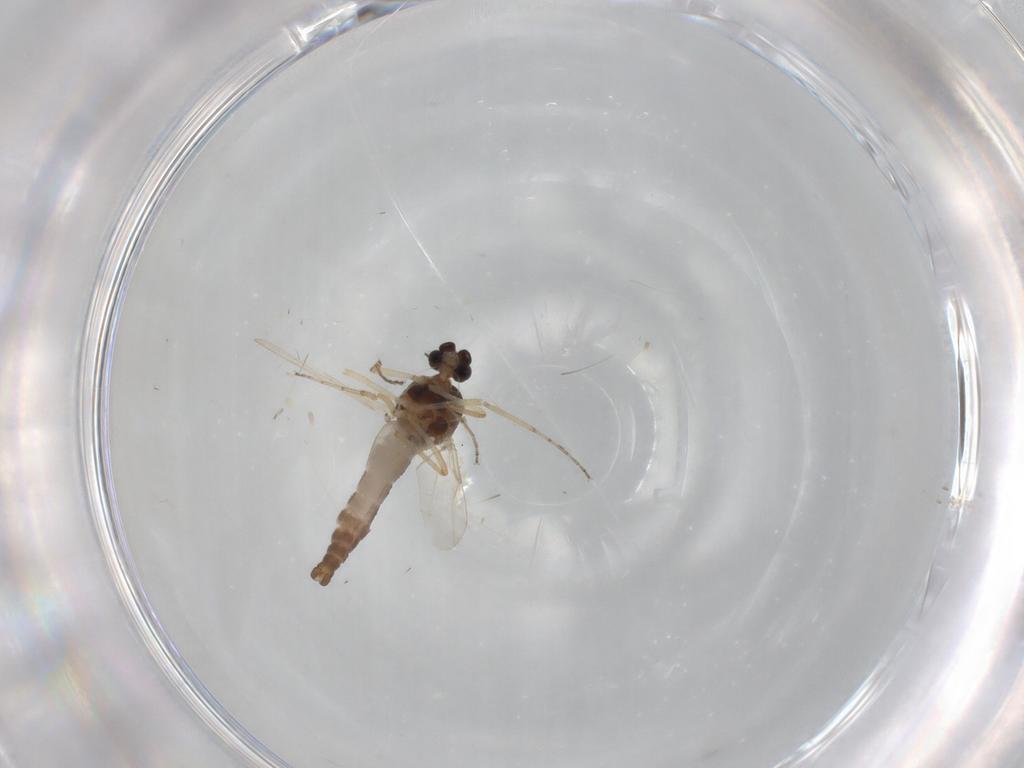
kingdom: Animalia
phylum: Arthropoda
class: Insecta
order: Diptera
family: Ceratopogonidae
